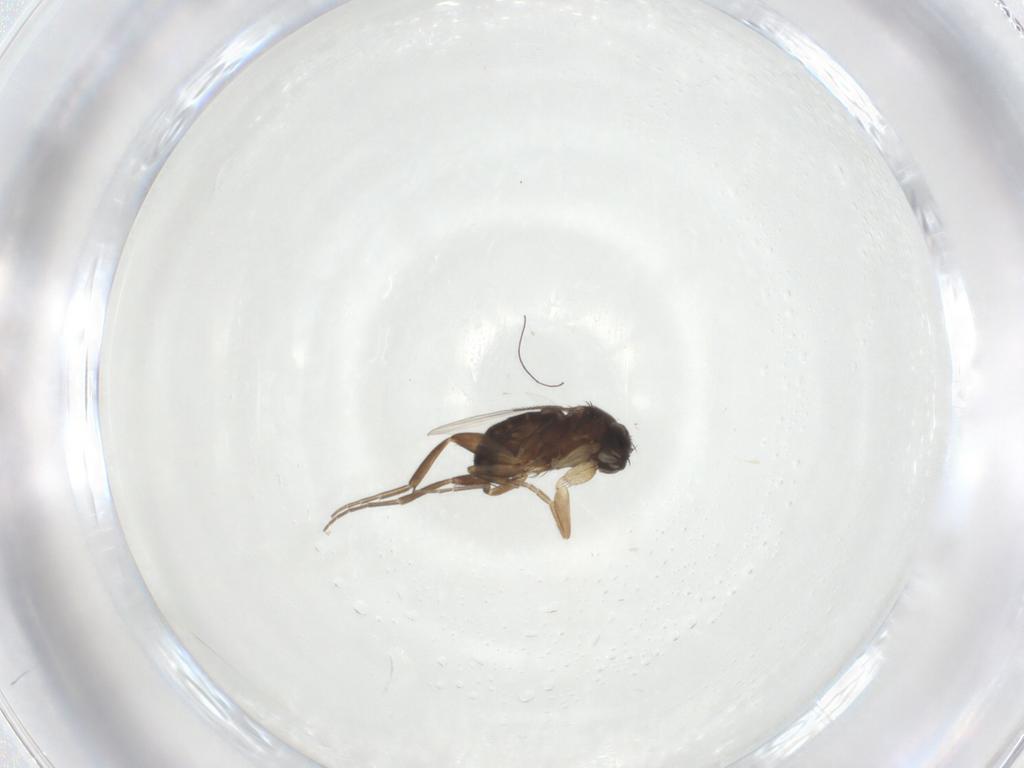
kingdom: Animalia
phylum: Arthropoda
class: Insecta
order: Diptera
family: Phoridae
